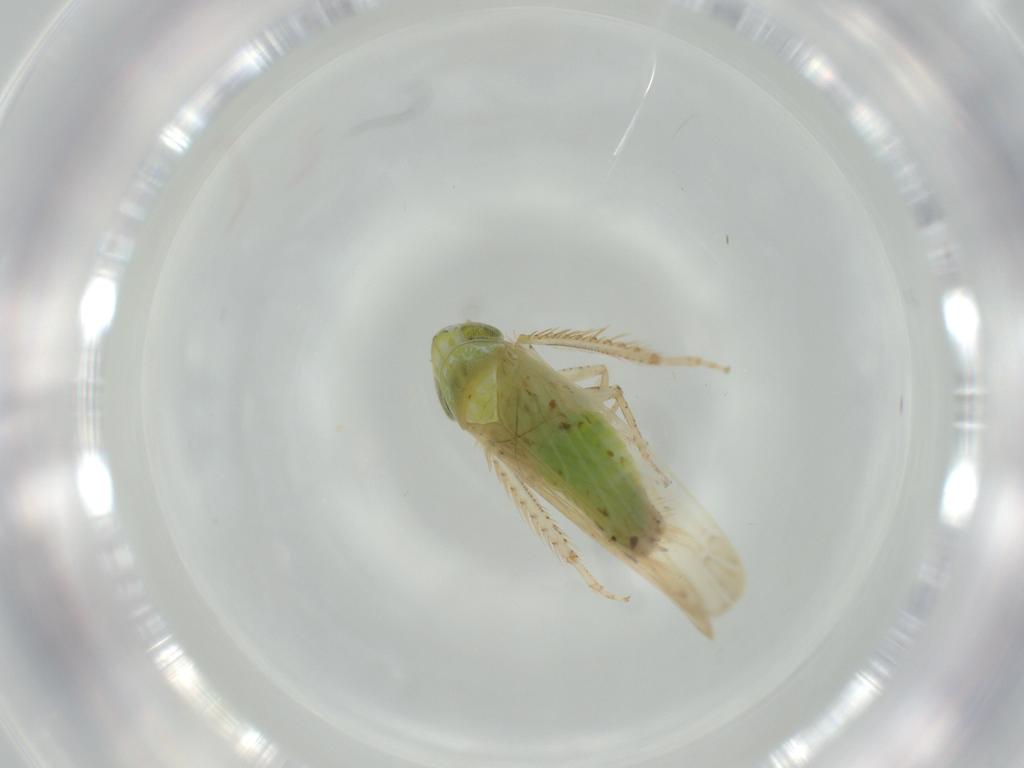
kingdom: Animalia
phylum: Arthropoda
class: Insecta
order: Hemiptera
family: Cicadellidae
